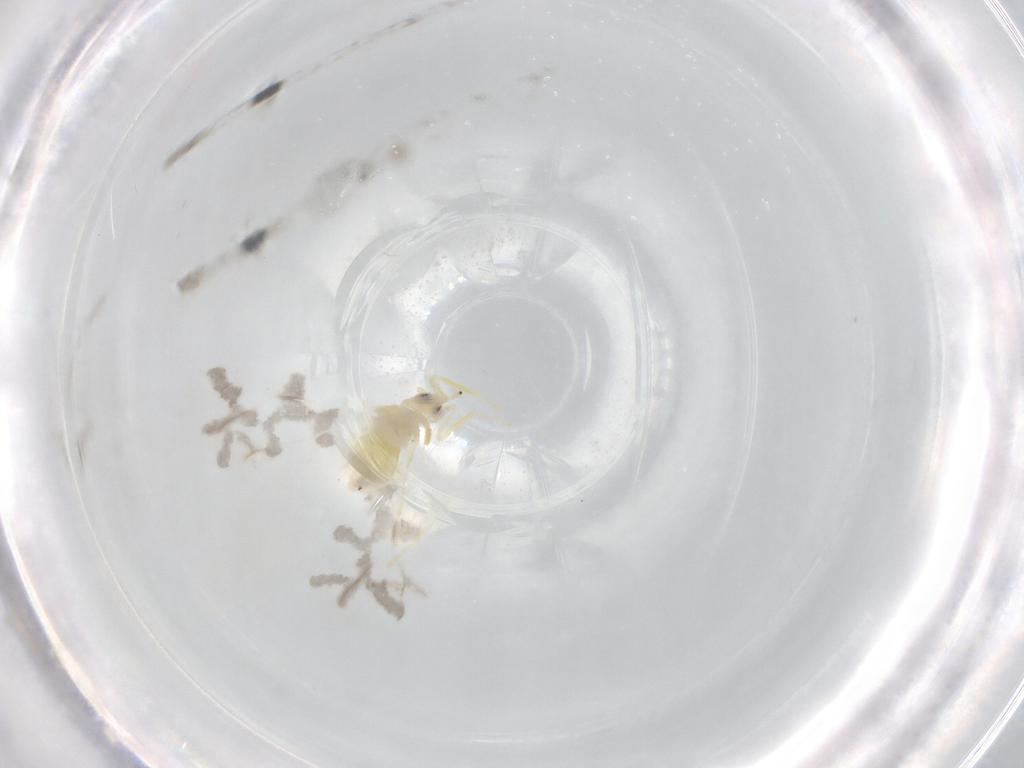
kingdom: Animalia
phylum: Arthropoda
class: Insecta
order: Hemiptera
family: Aleyrodidae
